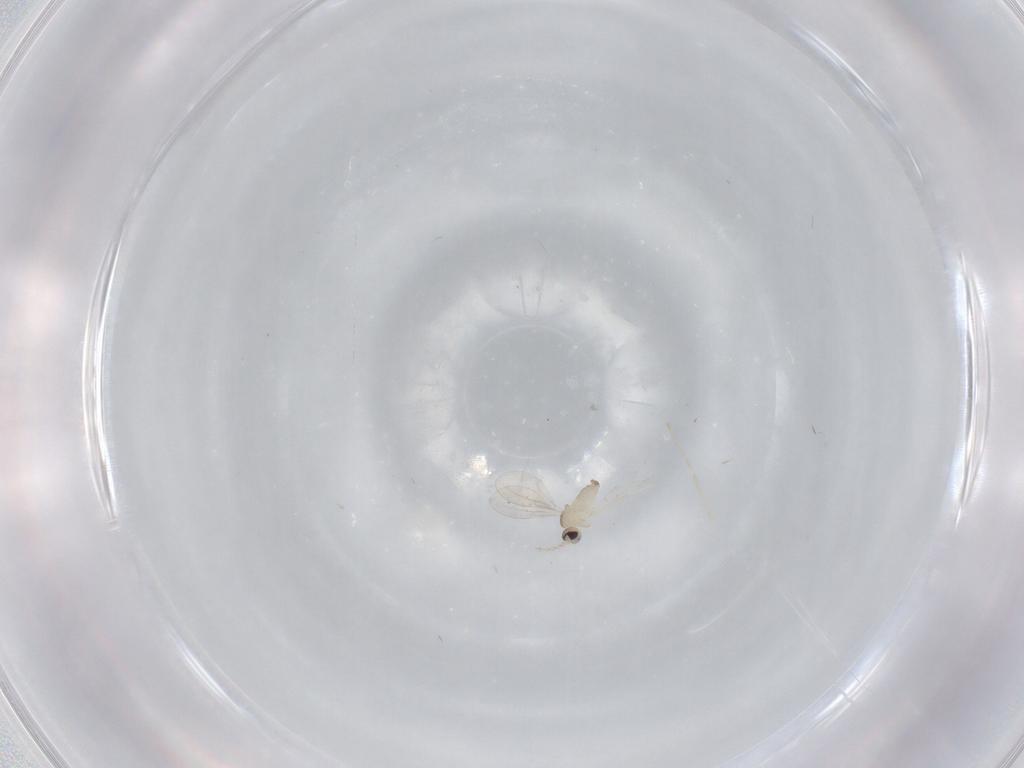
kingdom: Animalia
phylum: Arthropoda
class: Insecta
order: Diptera
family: Cecidomyiidae
